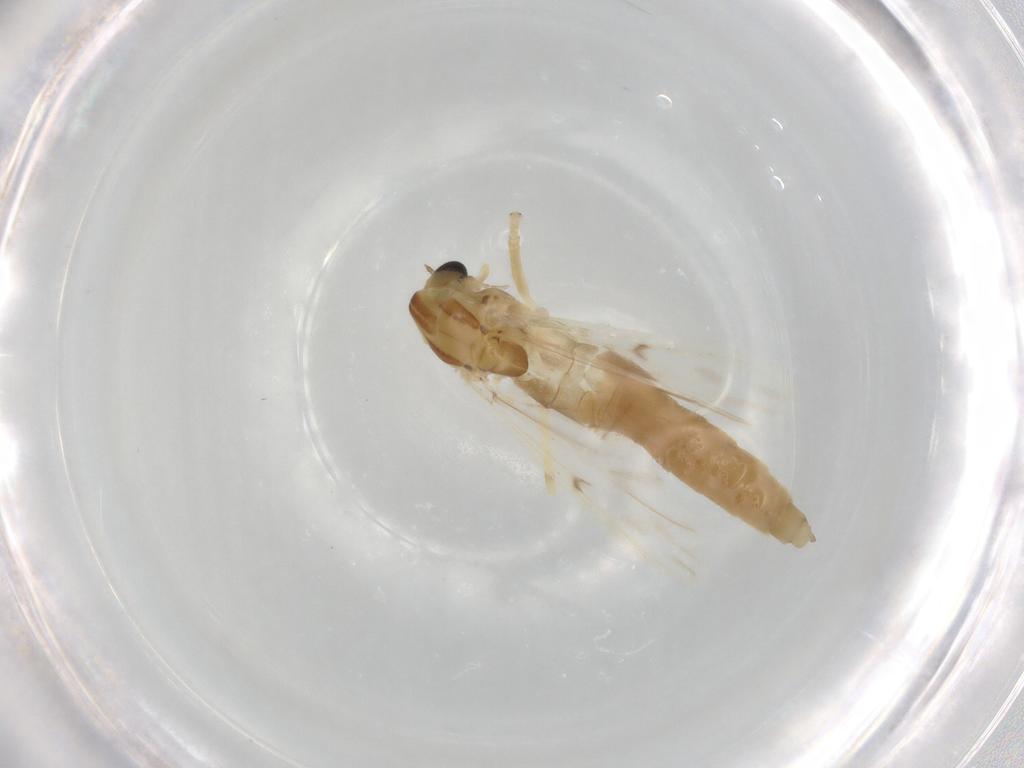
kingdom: Animalia
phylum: Arthropoda
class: Insecta
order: Diptera
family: Chironomidae
